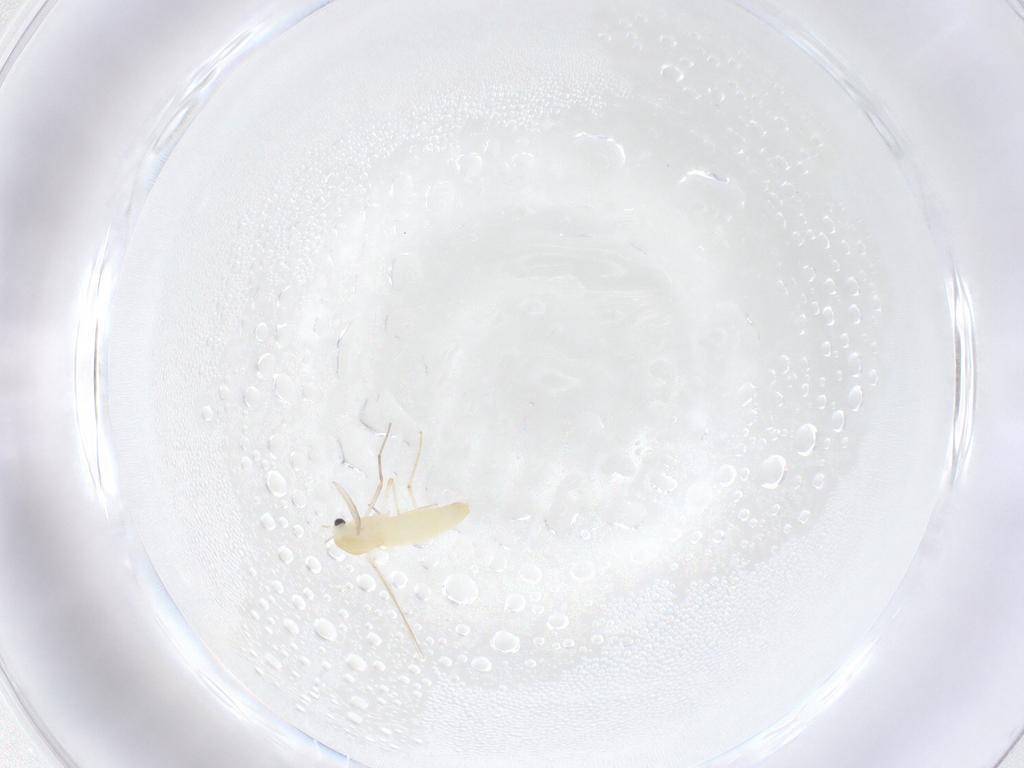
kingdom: Animalia
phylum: Arthropoda
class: Insecta
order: Diptera
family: Chironomidae
